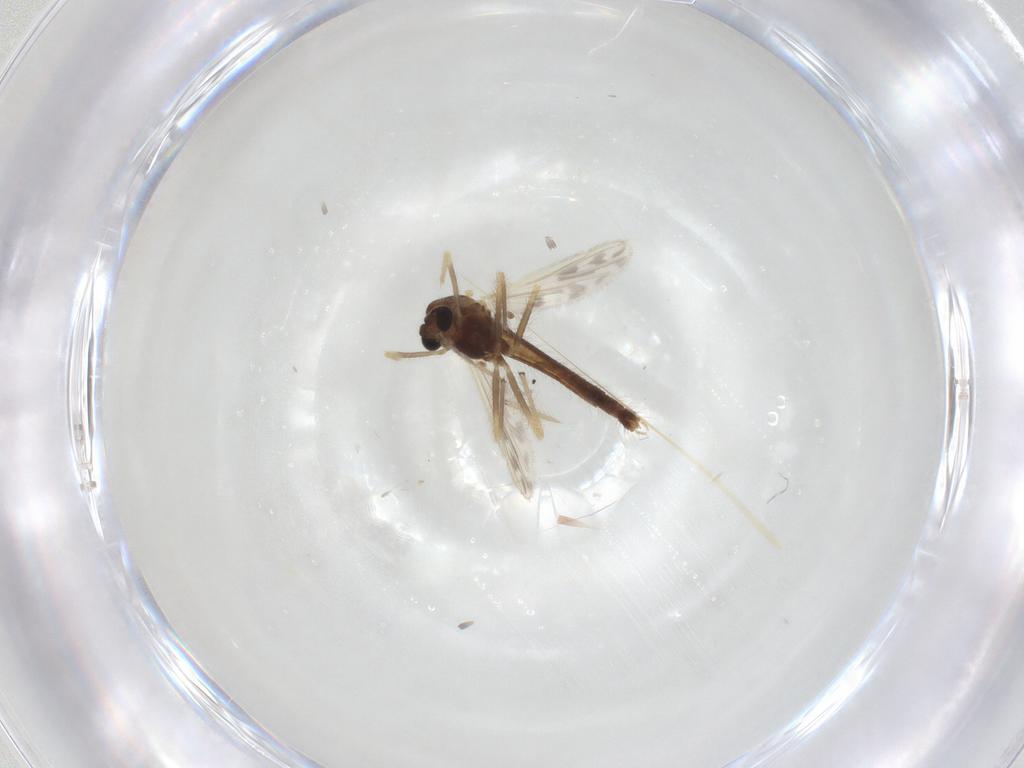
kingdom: Animalia
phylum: Arthropoda
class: Insecta
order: Diptera
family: Chironomidae
